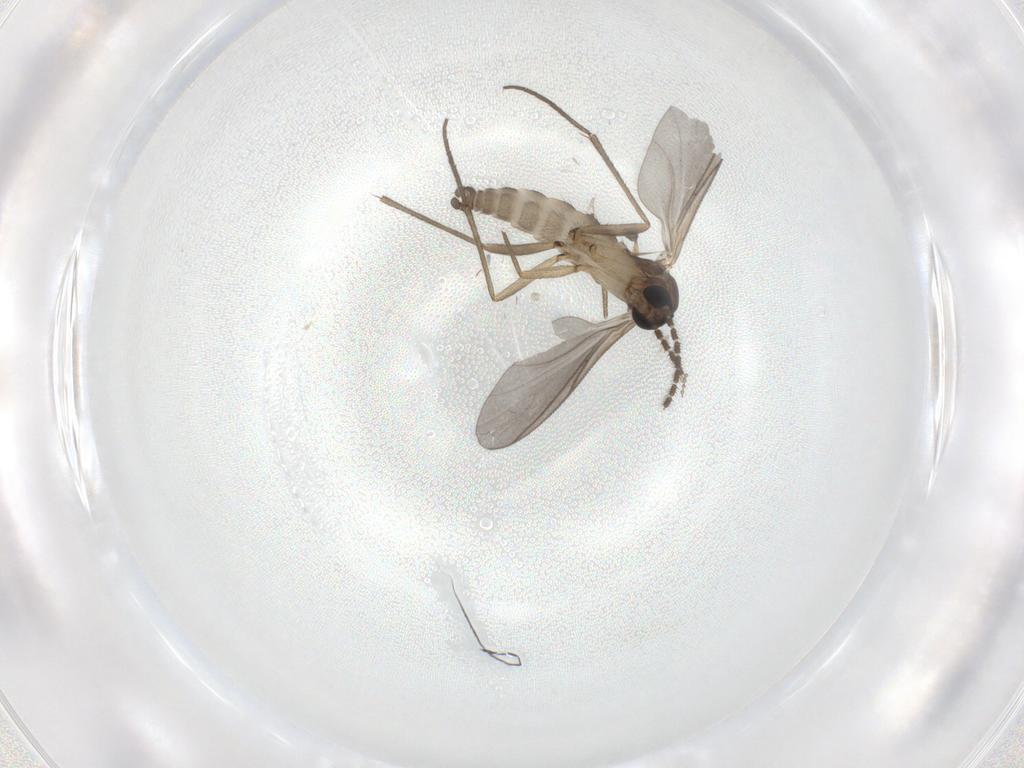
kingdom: Animalia
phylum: Arthropoda
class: Insecta
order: Diptera
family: Sciaridae
